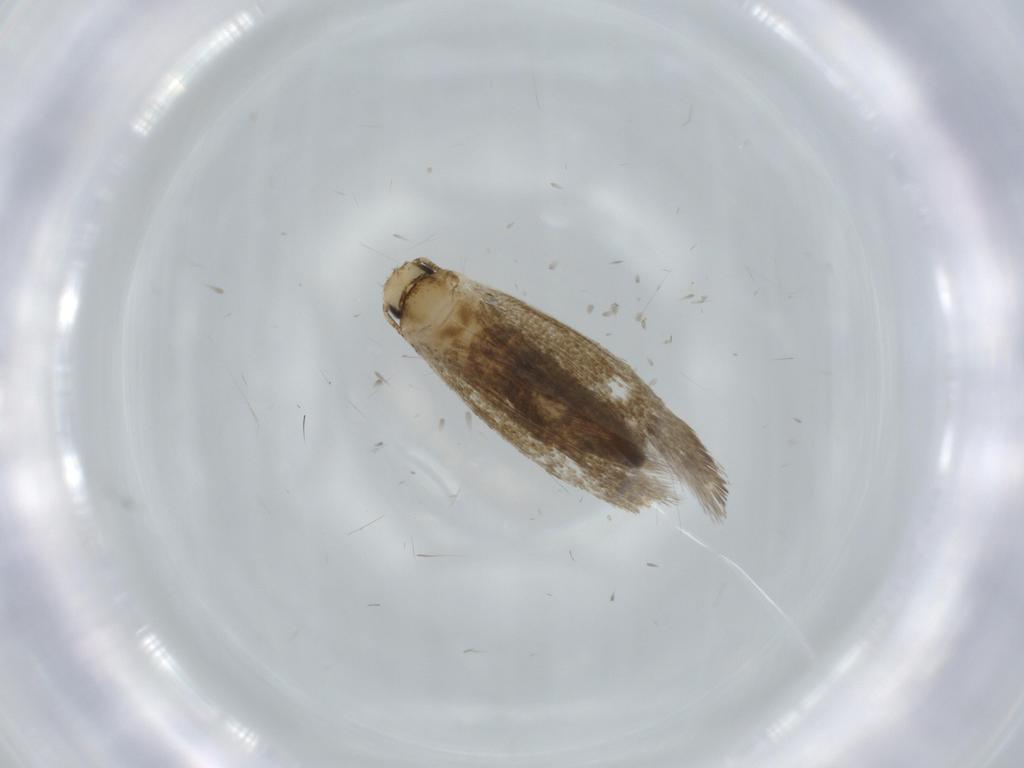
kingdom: Animalia
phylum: Arthropoda
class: Insecta
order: Lepidoptera
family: Tineidae
